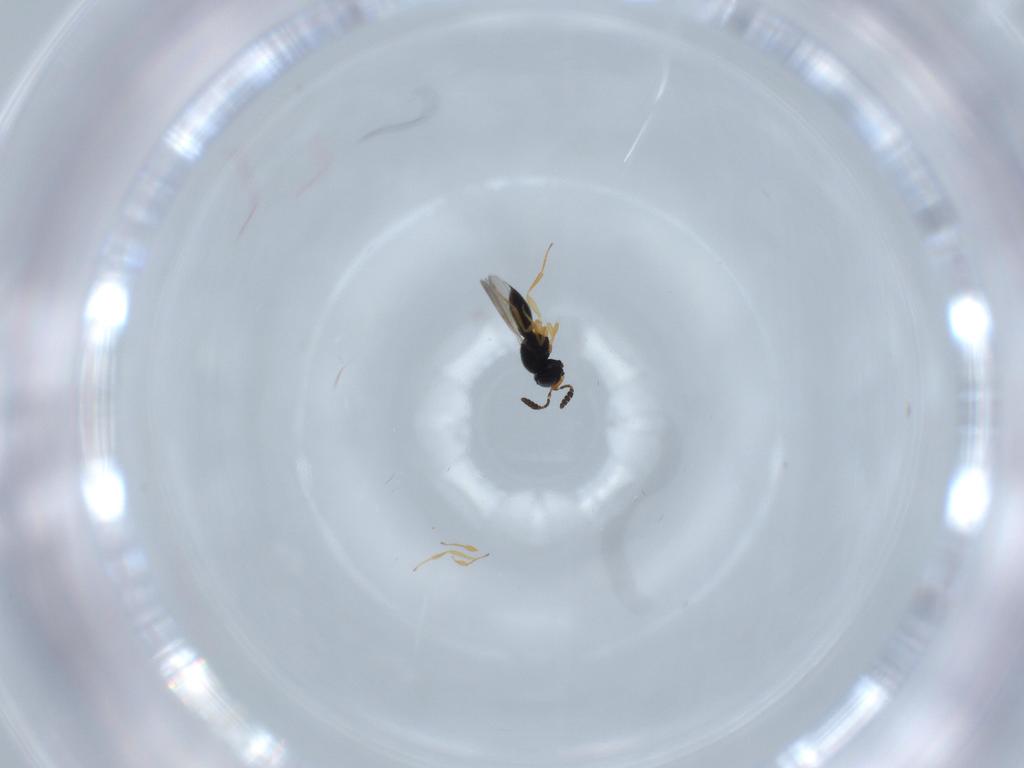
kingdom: Animalia
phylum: Arthropoda
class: Insecta
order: Hymenoptera
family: Scelionidae
